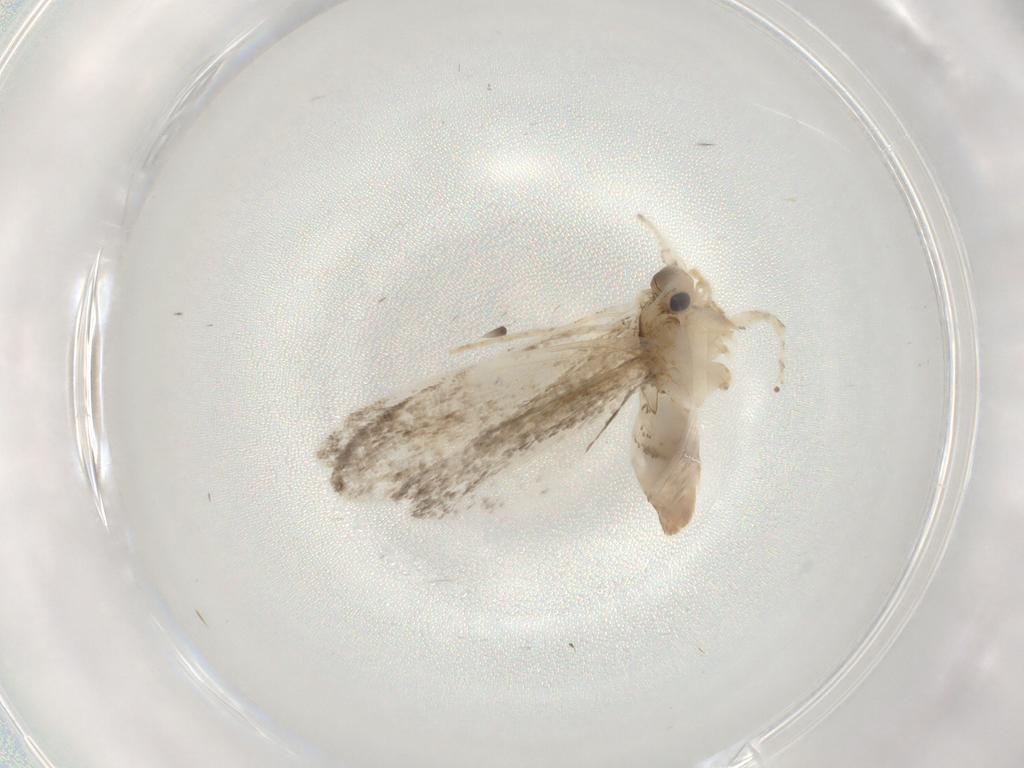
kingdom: Animalia
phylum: Arthropoda
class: Insecta
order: Lepidoptera
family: Tineidae
